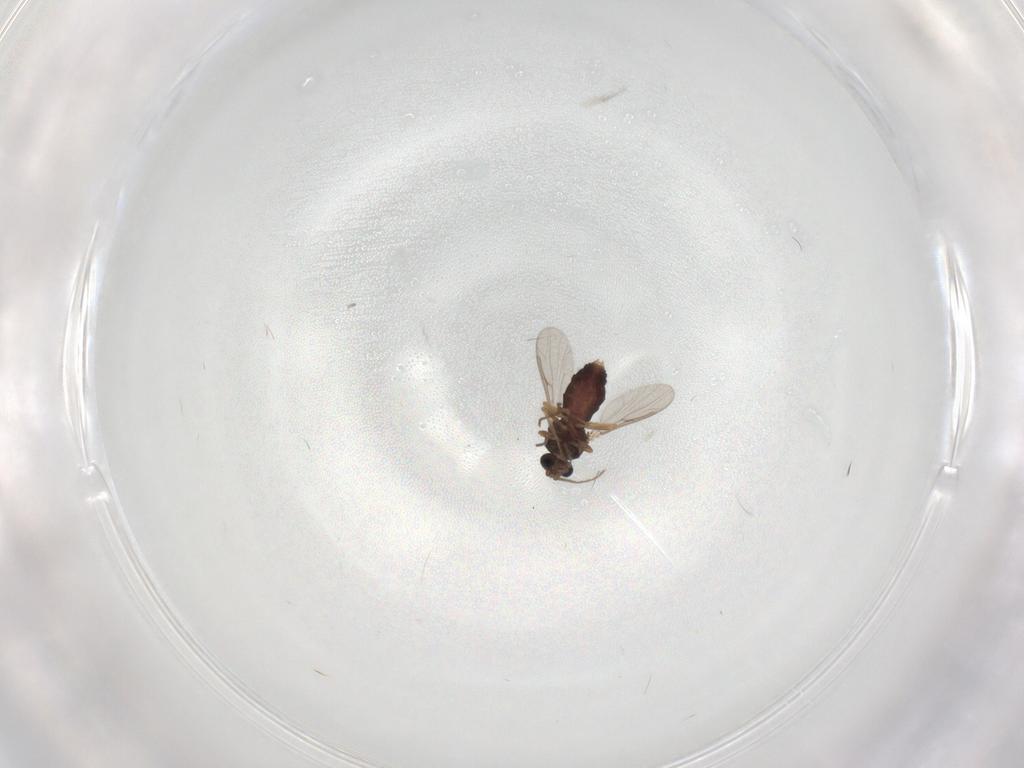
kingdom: Animalia
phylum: Arthropoda
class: Insecta
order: Diptera
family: Ceratopogonidae
